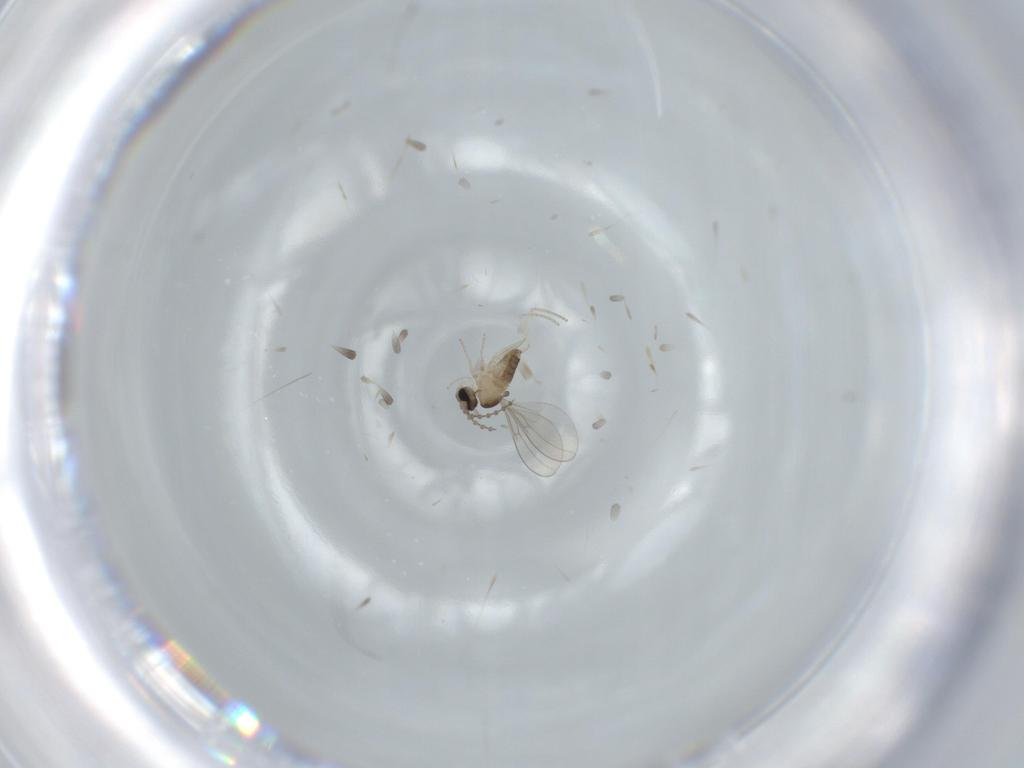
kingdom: Animalia
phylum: Arthropoda
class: Insecta
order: Diptera
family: Cecidomyiidae
